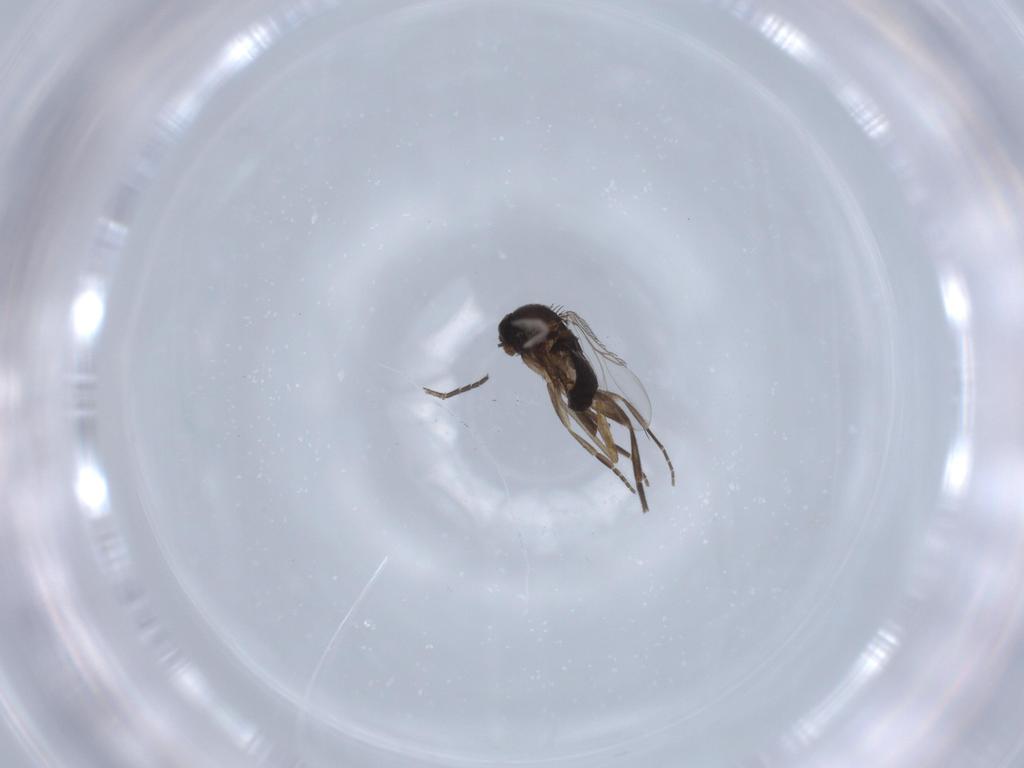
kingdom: Animalia
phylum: Arthropoda
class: Insecta
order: Diptera
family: Phoridae
